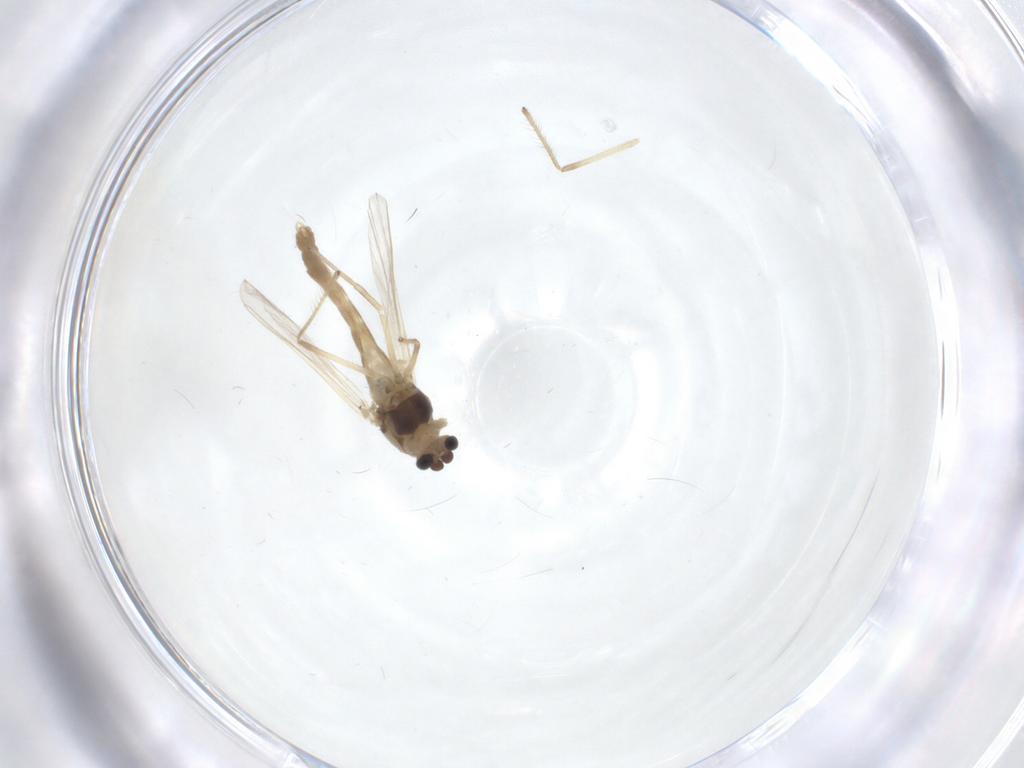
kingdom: Animalia
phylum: Arthropoda
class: Insecta
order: Diptera
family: Chironomidae
